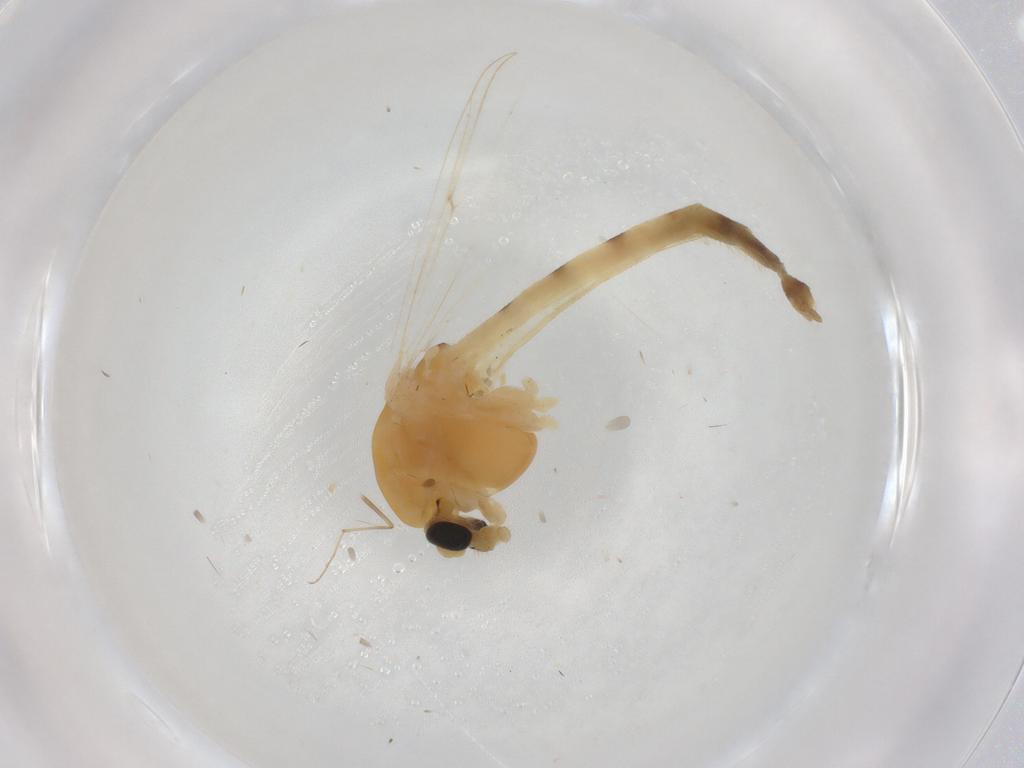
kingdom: Animalia
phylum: Arthropoda
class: Insecta
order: Diptera
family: Chironomidae
